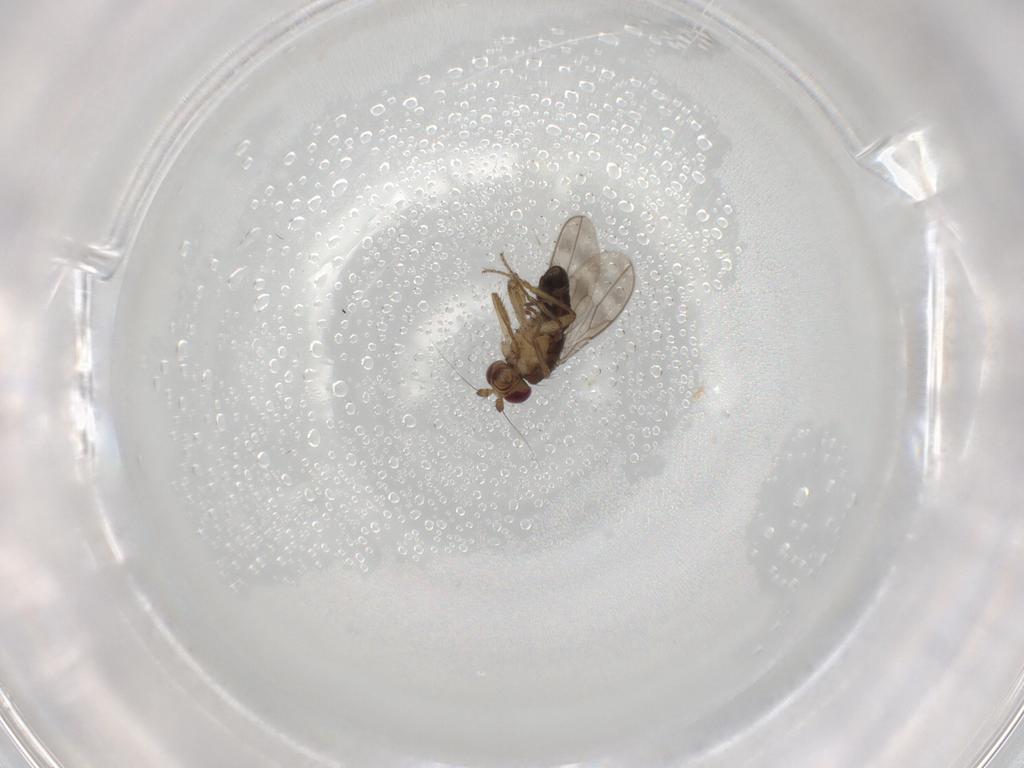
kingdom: Animalia
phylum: Arthropoda
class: Insecta
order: Diptera
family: Sphaeroceridae
